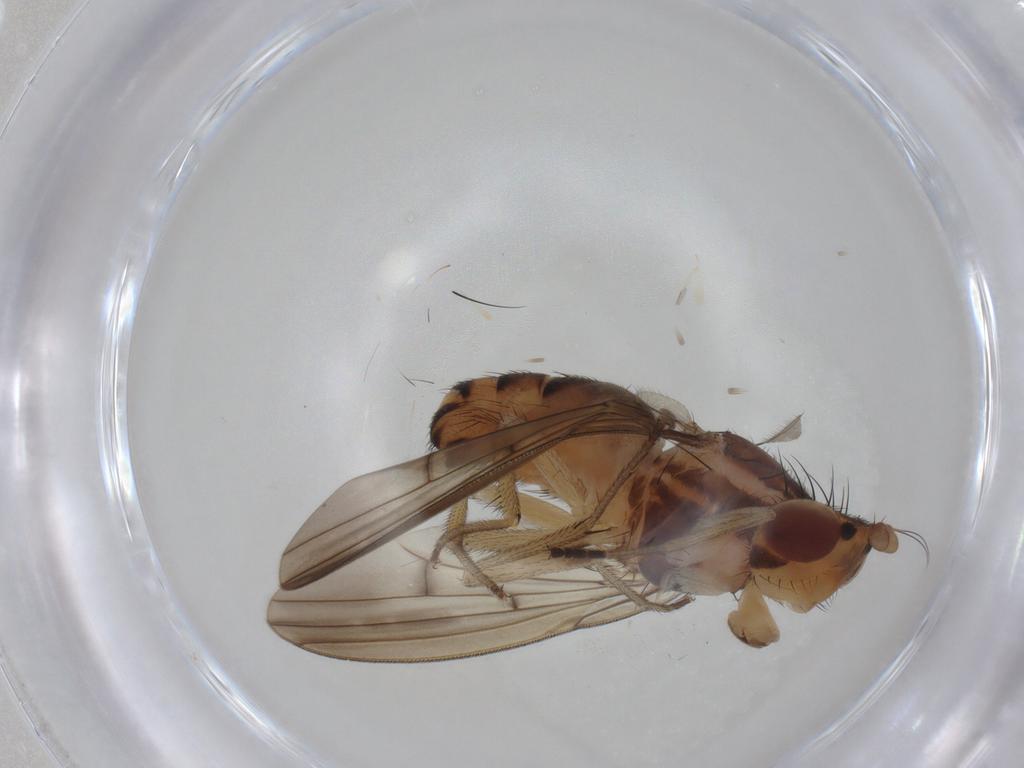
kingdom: Animalia
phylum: Arthropoda
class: Insecta
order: Diptera
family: Lauxaniidae
